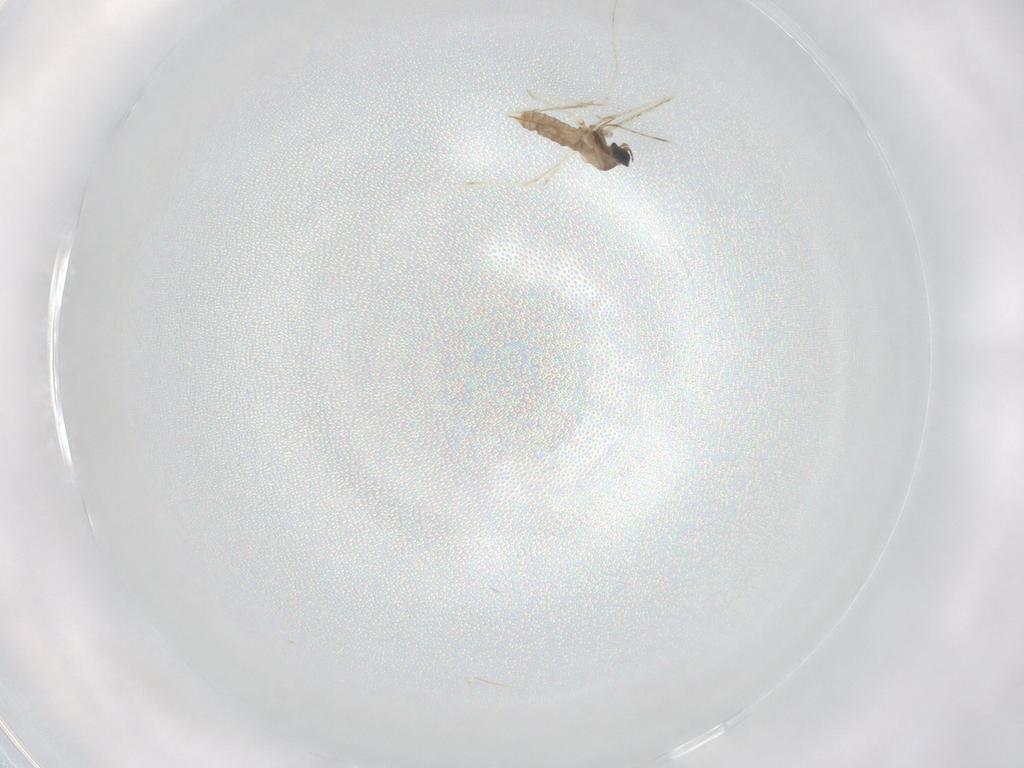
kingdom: Animalia
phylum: Arthropoda
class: Insecta
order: Diptera
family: Cecidomyiidae
